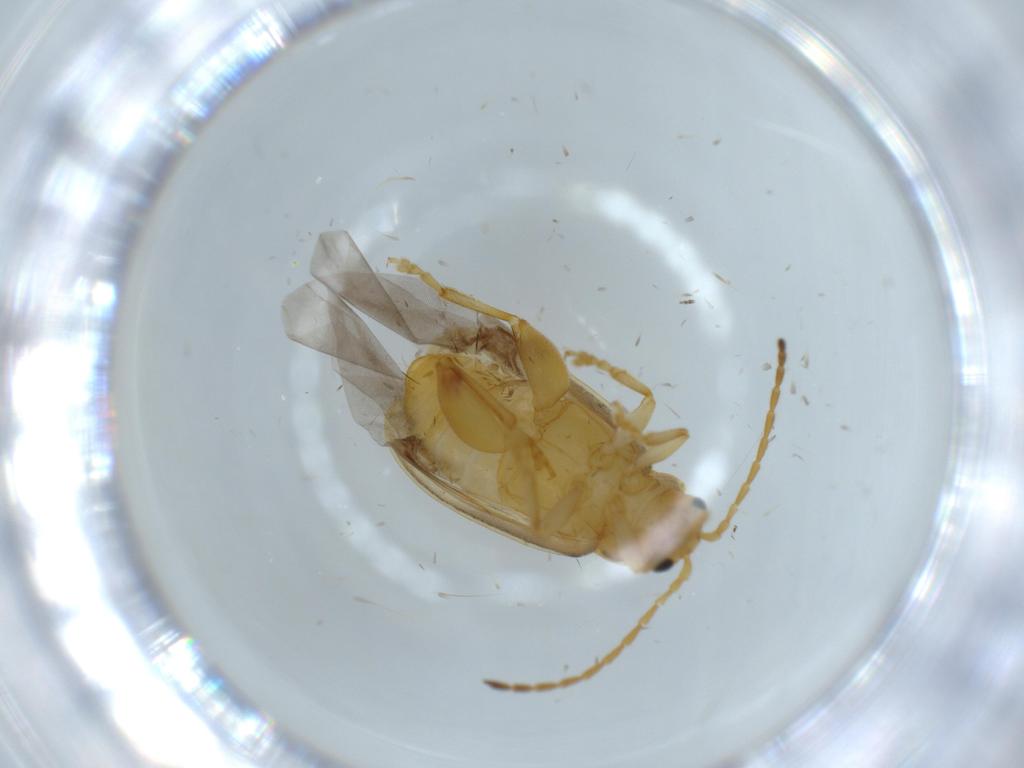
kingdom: Animalia
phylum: Arthropoda
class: Insecta
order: Coleoptera
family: Chrysomelidae
